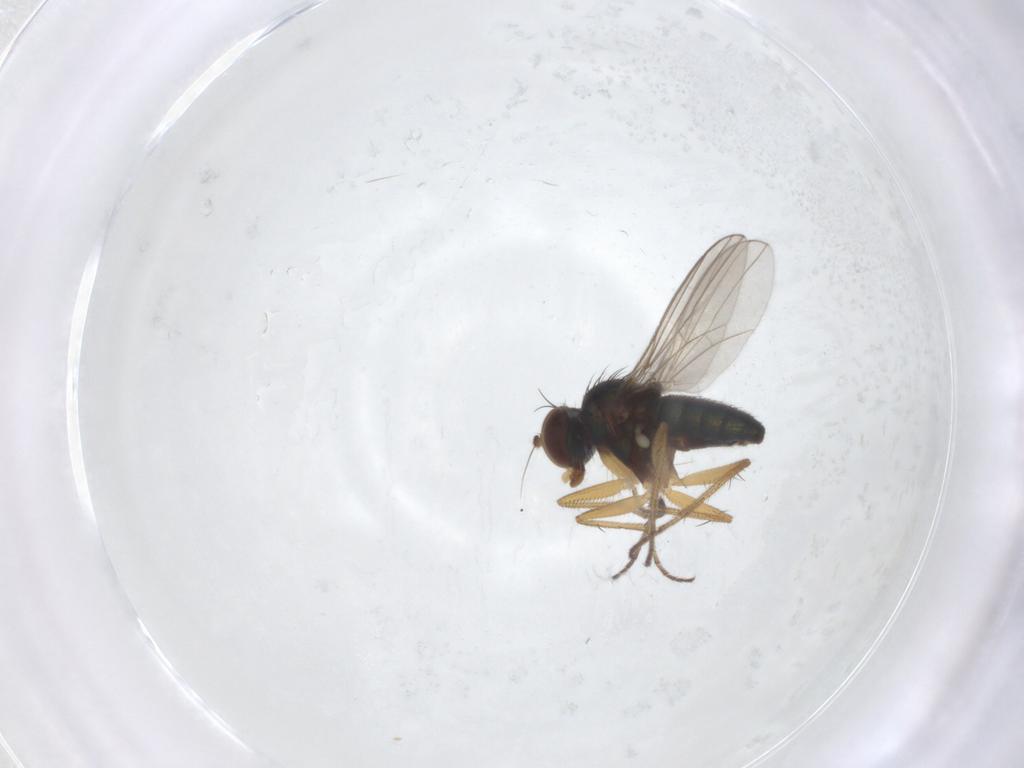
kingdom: Animalia
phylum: Arthropoda
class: Insecta
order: Diptera
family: Dolichopodidae
